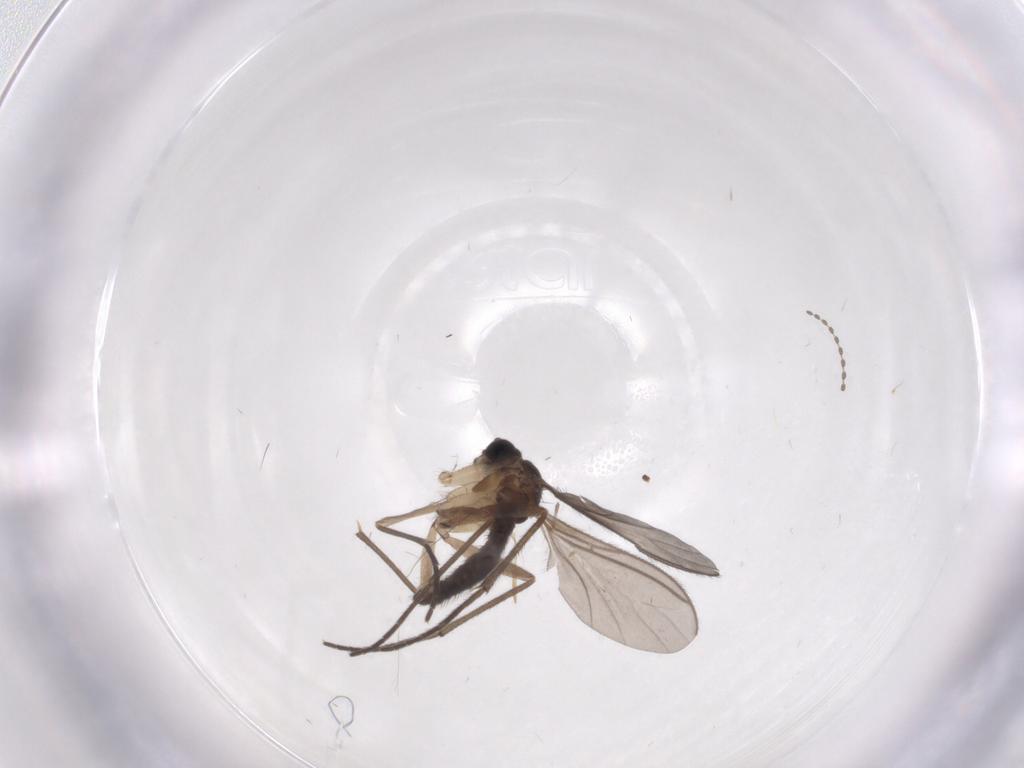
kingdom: Animalia
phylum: Arthropoda
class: Insecta
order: Hymenoptera
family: Scelionidae
